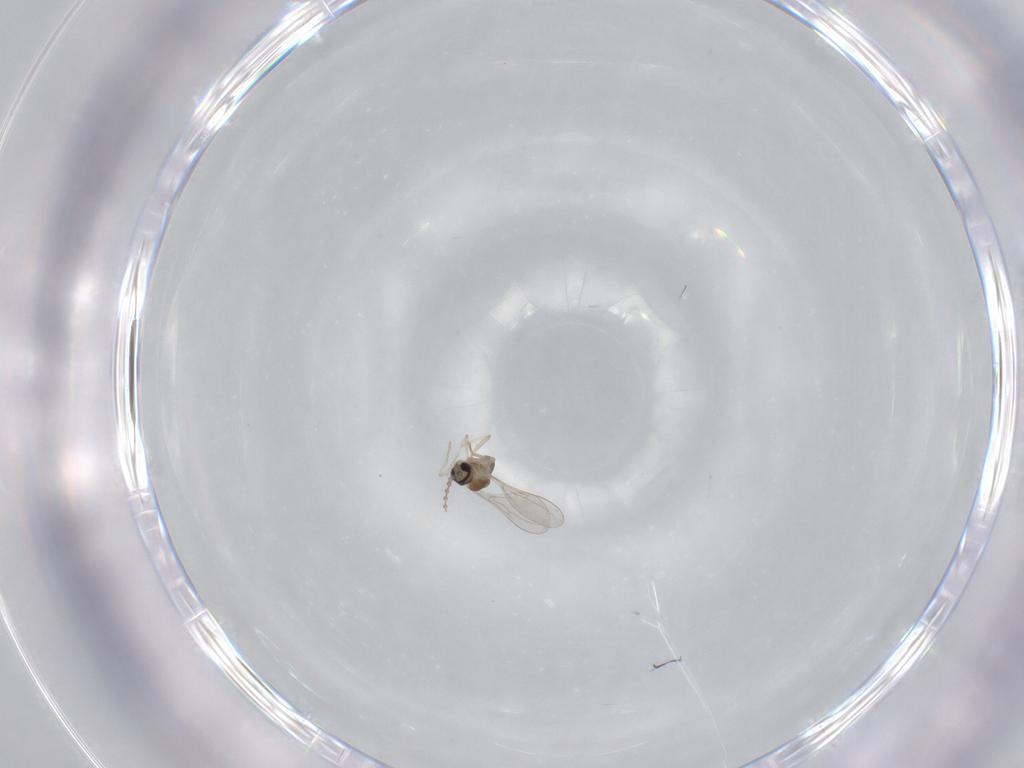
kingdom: Animalia
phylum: Arthropoda
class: Insecta
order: Diptera
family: Cecidomyiidae
